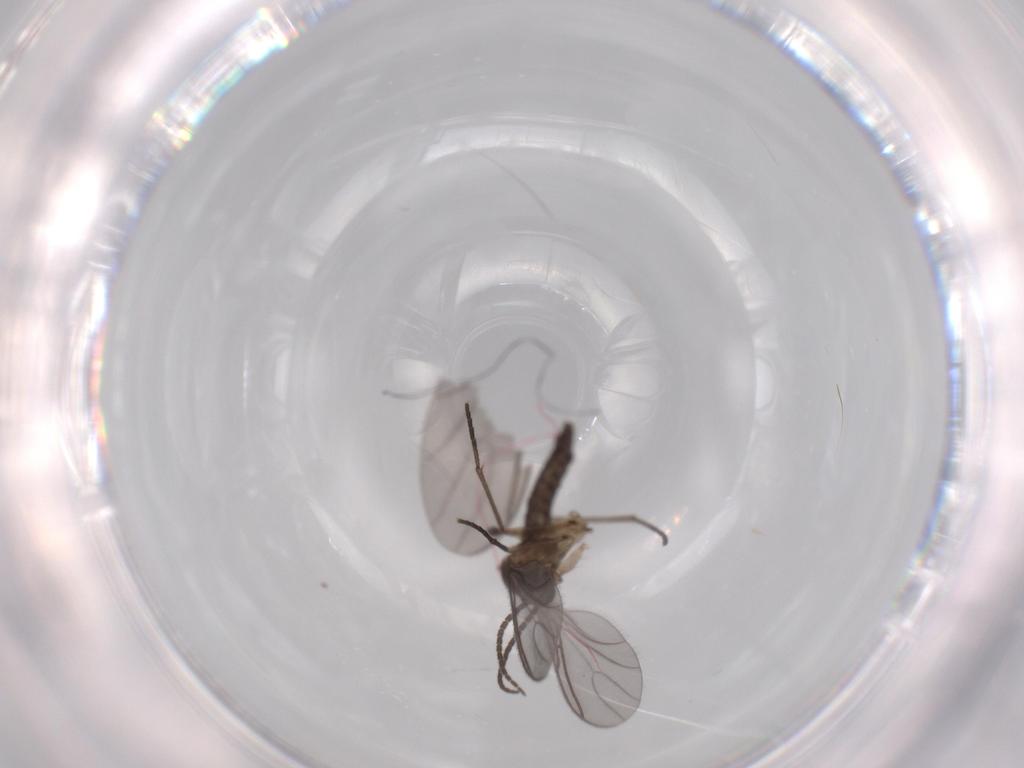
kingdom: Animalia
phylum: Arthropoda
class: Insecta
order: Diptera
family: Sciaridae
